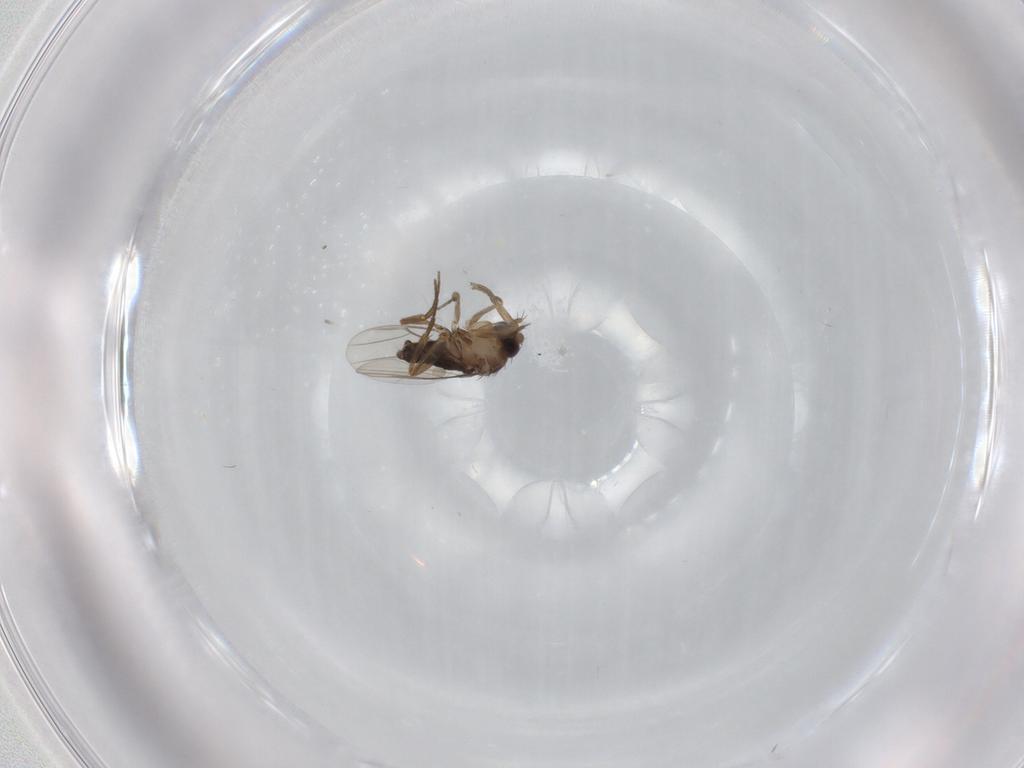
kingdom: Animalia
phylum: Arthropoda
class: Insecta
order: Diptera
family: Phoridae
